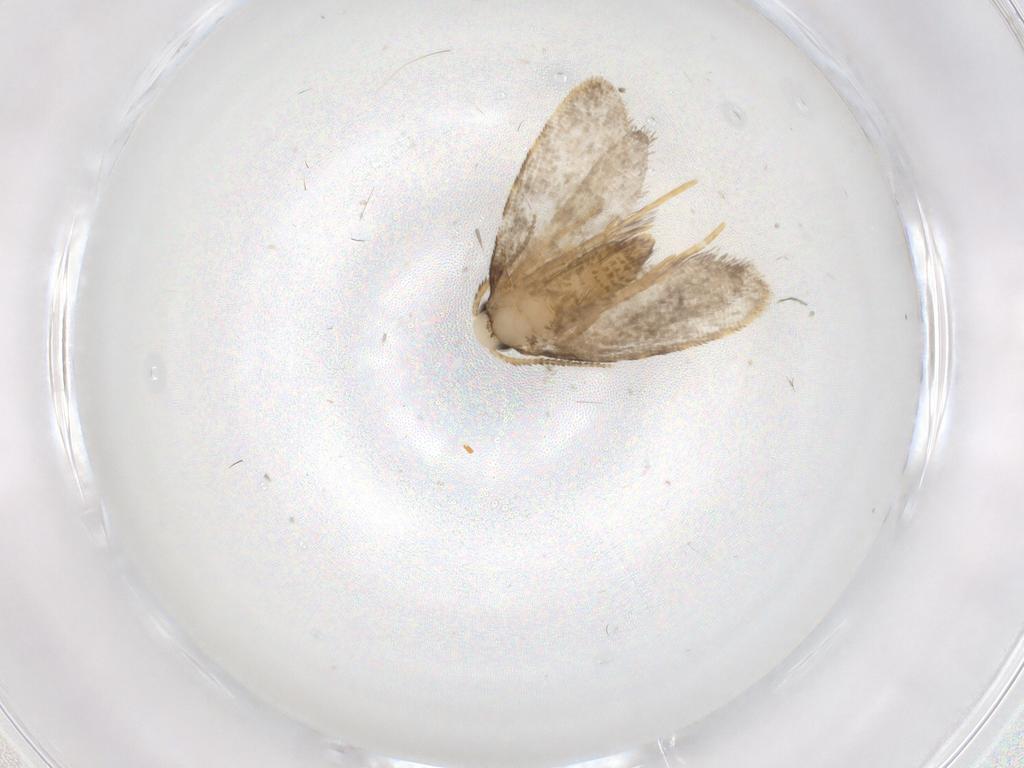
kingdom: Animalia
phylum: Arthropoda
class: Insecta
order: Lepidoptera
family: Psychidae
